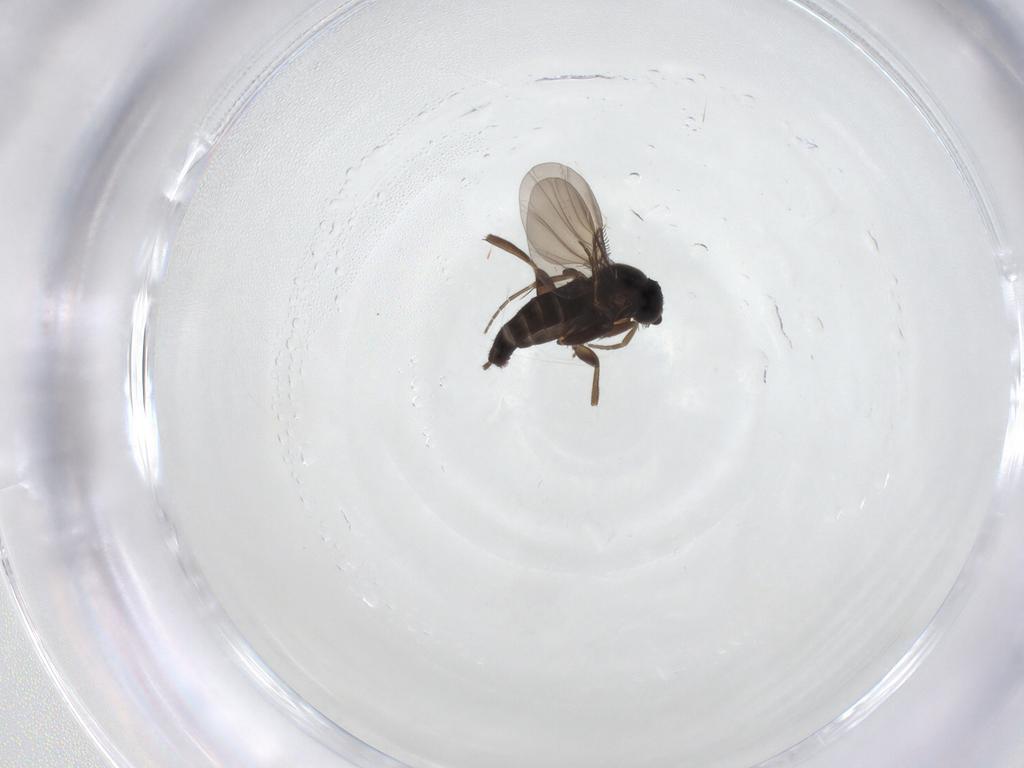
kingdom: Animalia
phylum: Arthropoda
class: Insecta
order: Diptera
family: Phoridae
